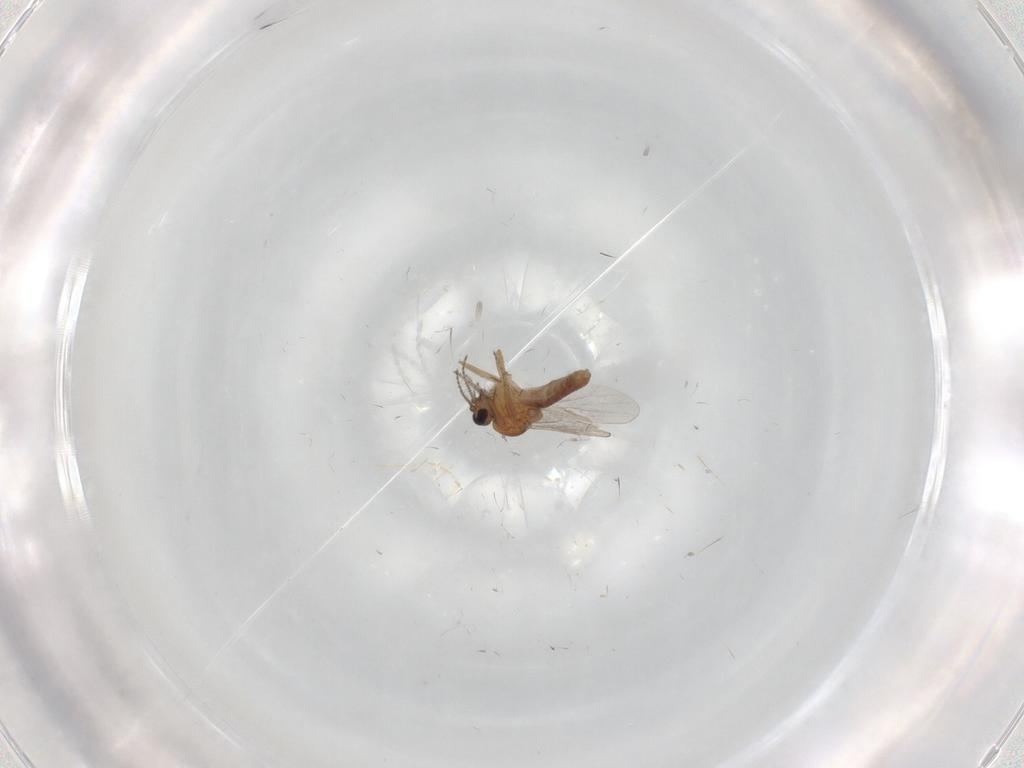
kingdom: Animalia
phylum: Arthropoda
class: Insecta
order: Diptera
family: Ceratopogonidae
